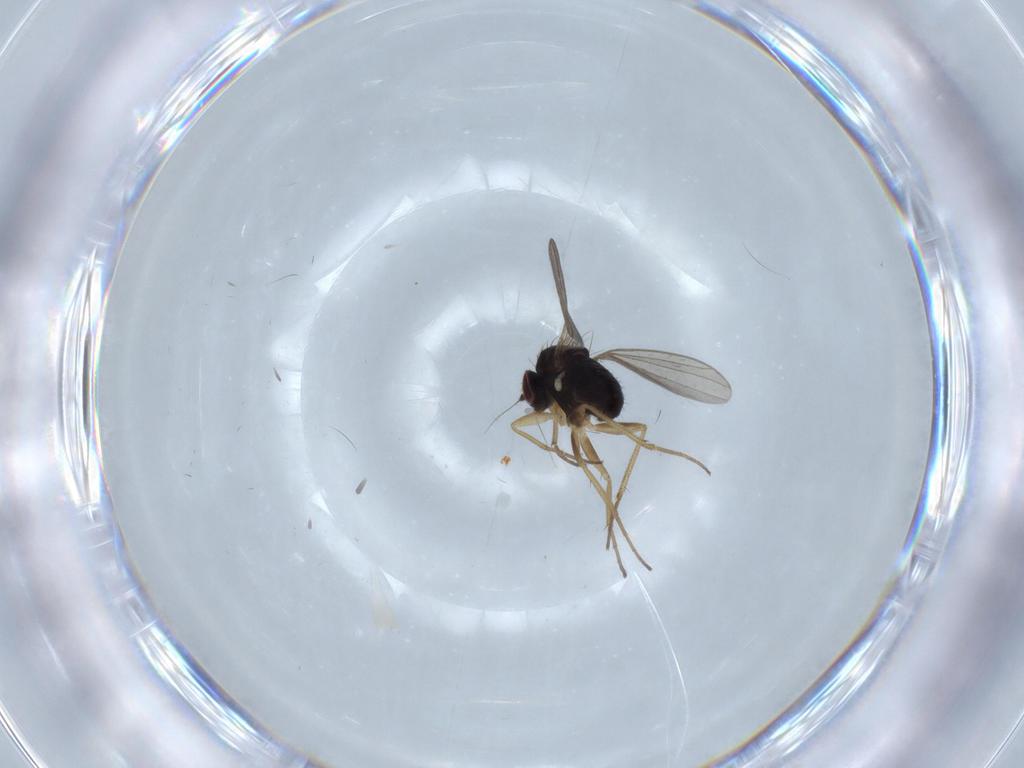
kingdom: Animalia
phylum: Arthropoda
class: Insecta
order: Diptera
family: Dolichopodidae
